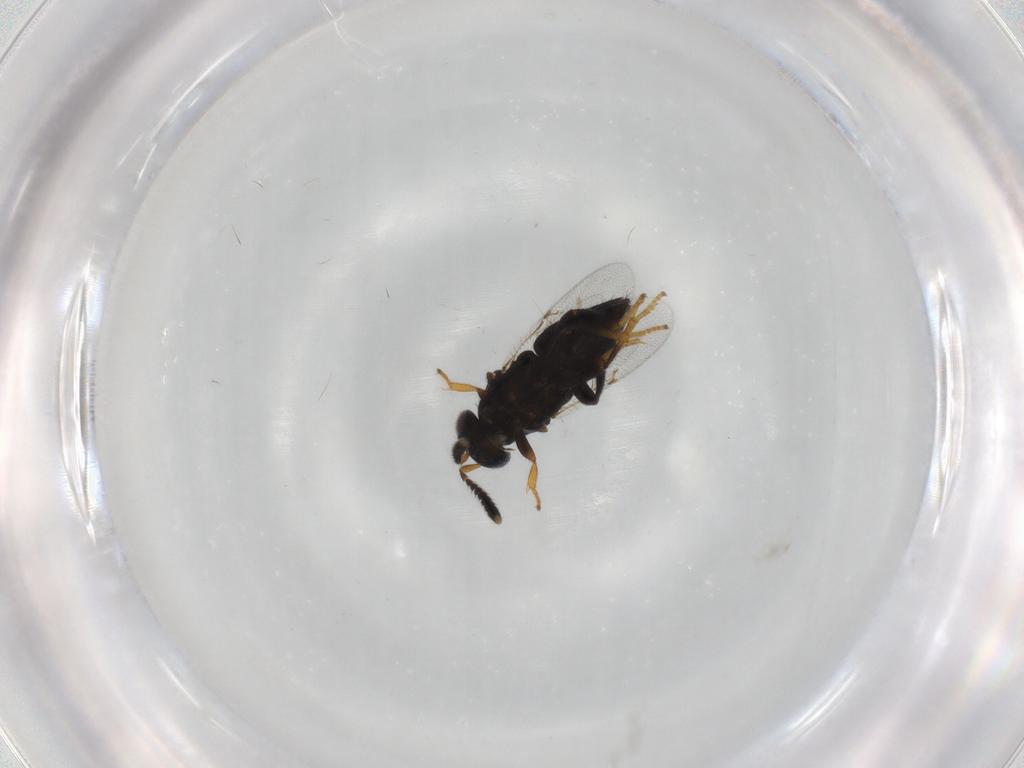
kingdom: Animalia
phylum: Arthropoda
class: Insecta
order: Hymenoptera
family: Encyrtidae
